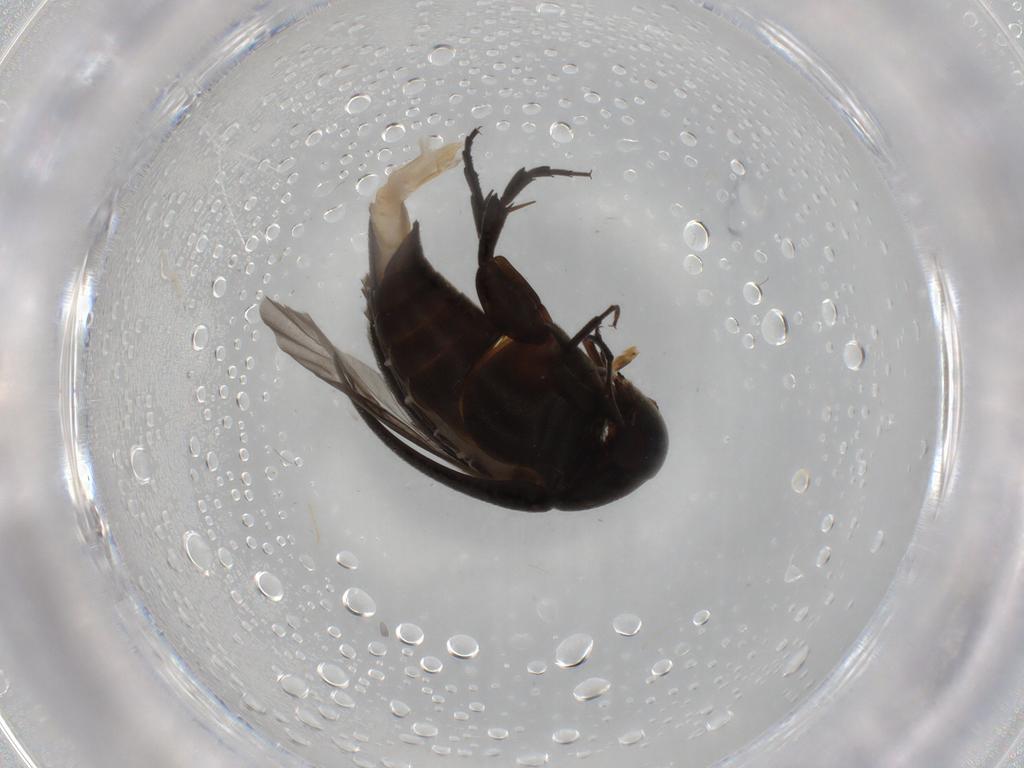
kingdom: Animalia
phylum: Arthropoda
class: Insecta
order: Coleoptera
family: Mordellidae
